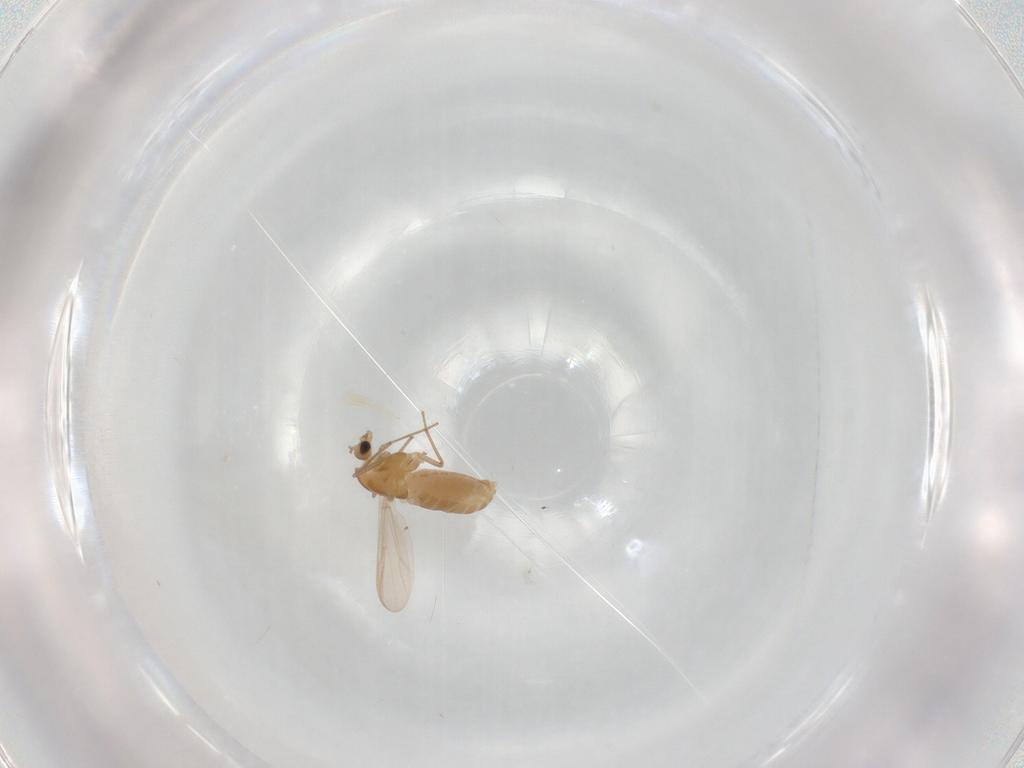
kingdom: Animalia
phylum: Arthropoda
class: Insecta
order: Diptera
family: Chironomidae
